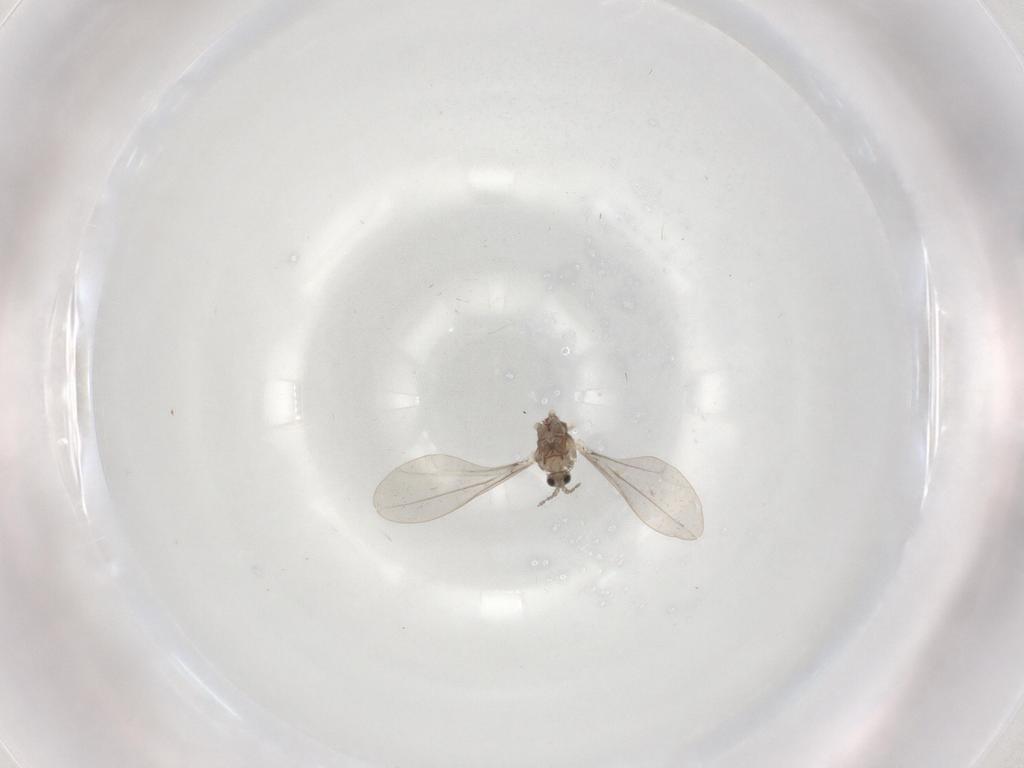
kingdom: Animalia
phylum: Arthropoda
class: Insecta
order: Diptera
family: Cecidomyiidae
